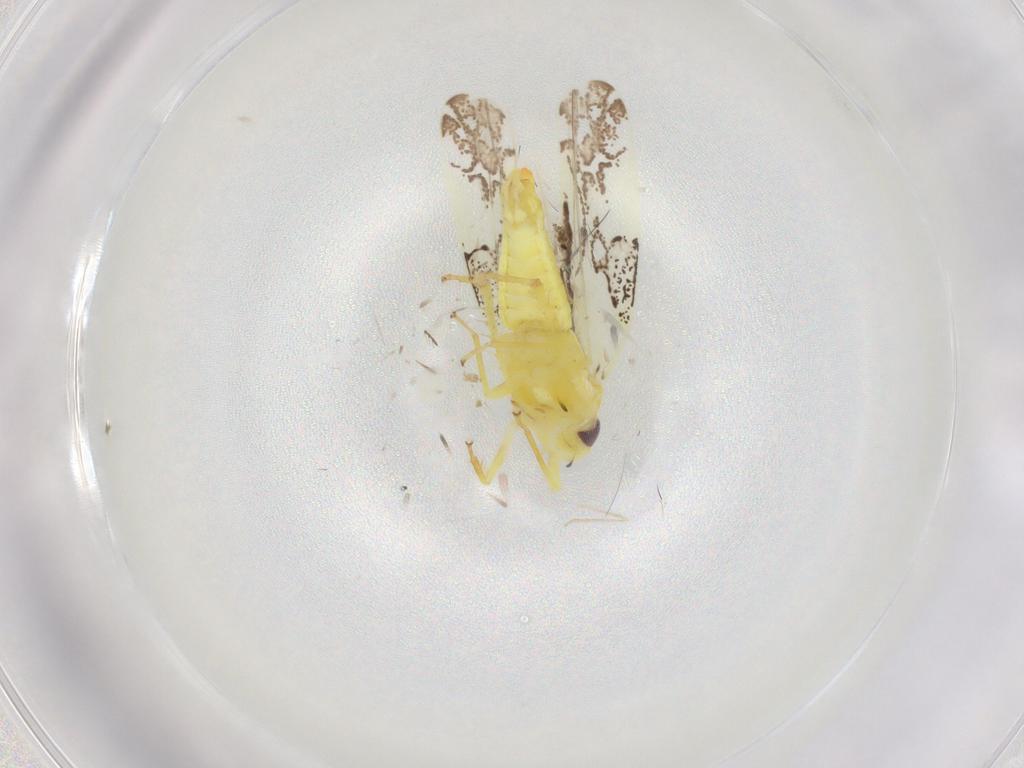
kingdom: Animalia
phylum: Arthropoda
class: Insecta
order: Hemiptera
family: Cicadellidae
